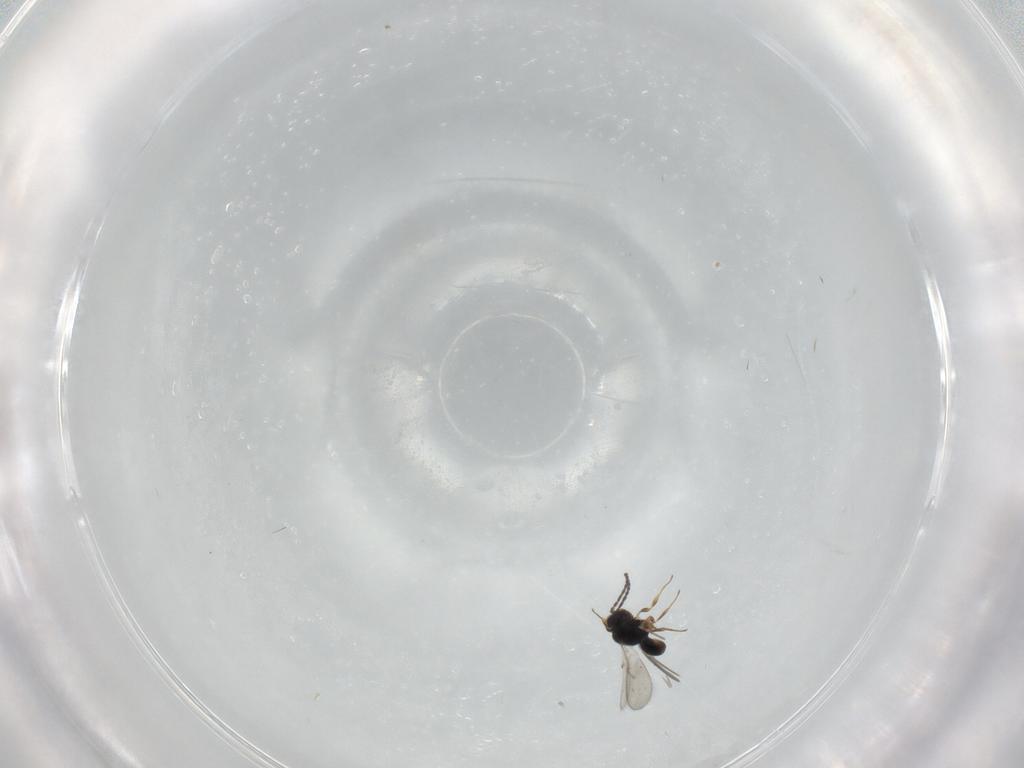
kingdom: Animalia
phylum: Arthropoda
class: Insecta
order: Hymenoptera
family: Scelionidae
